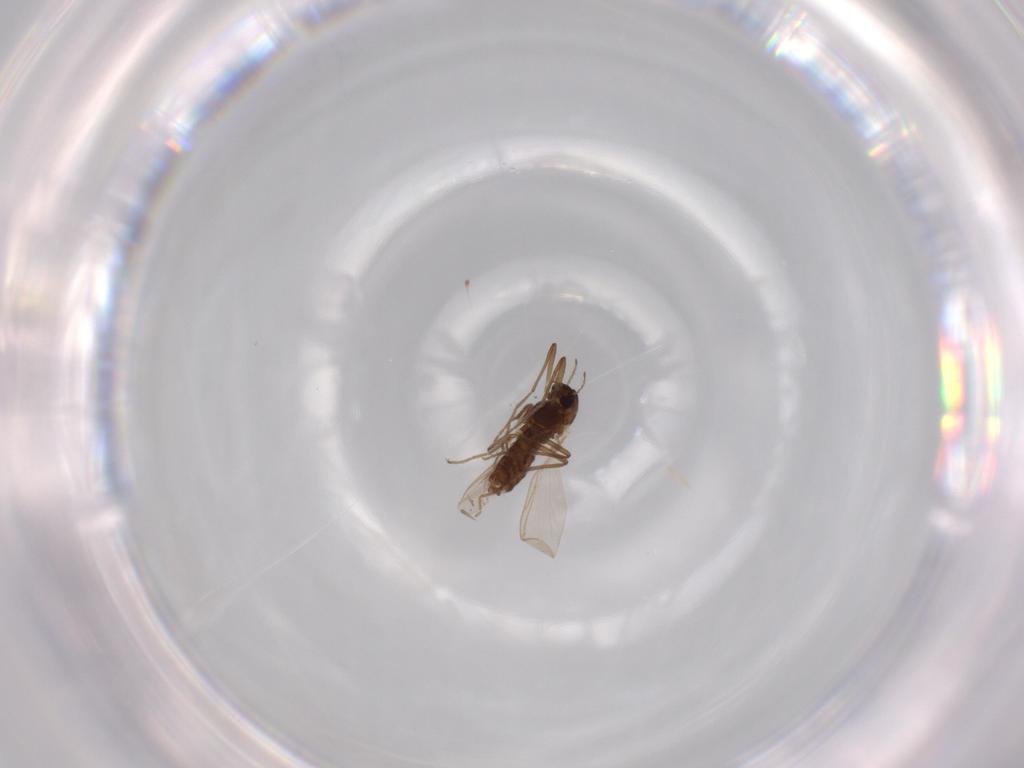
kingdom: Animalia
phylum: Arthropoda
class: Insecta
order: Diptera
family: Chironomidae
